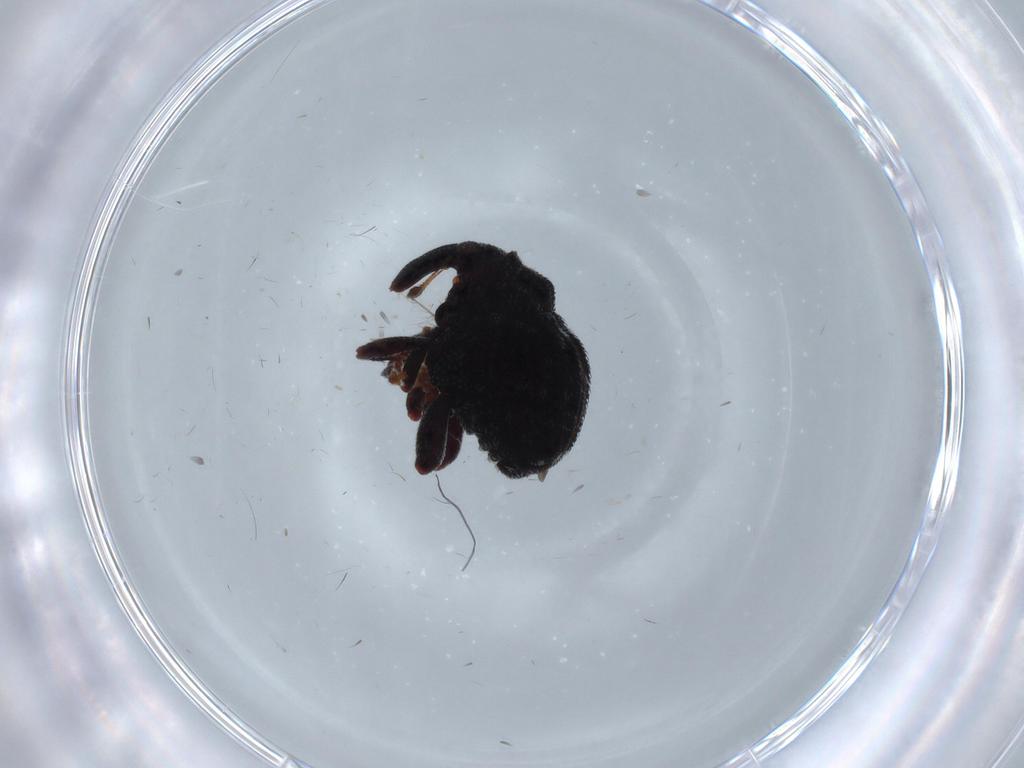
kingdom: Animalia
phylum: Arthropoda
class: Insecta
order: Coleoptera
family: Curculionidae
